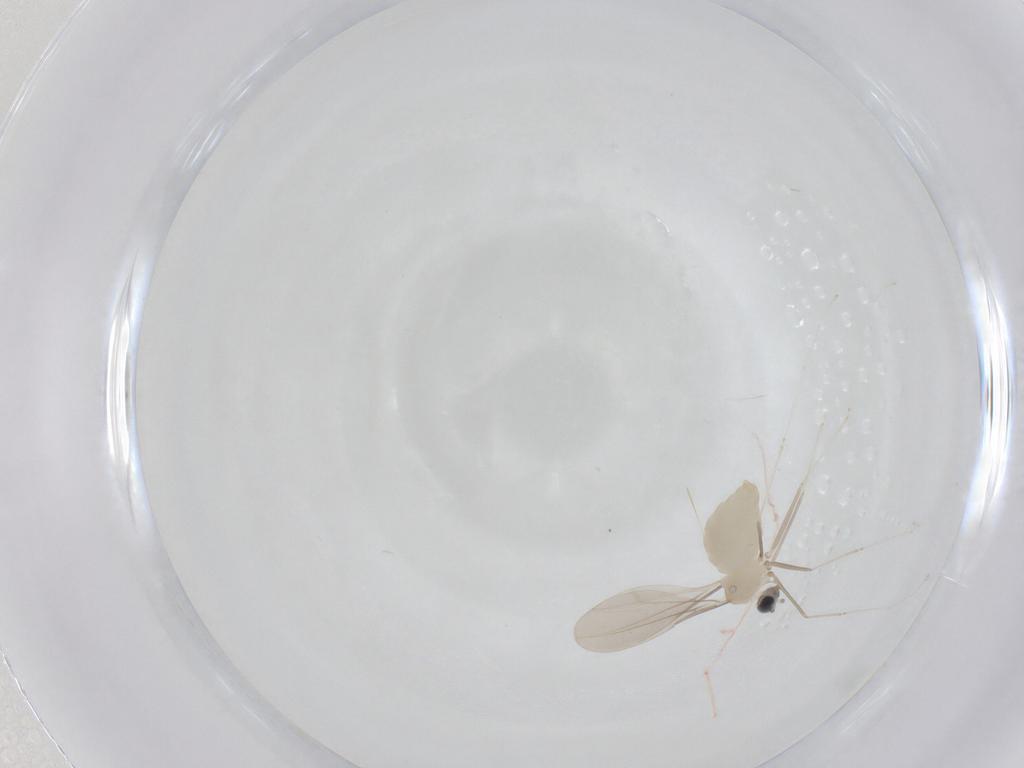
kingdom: Animalia
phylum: Arthropoda
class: Insecta
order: Diptera
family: Cecidomyiidae
